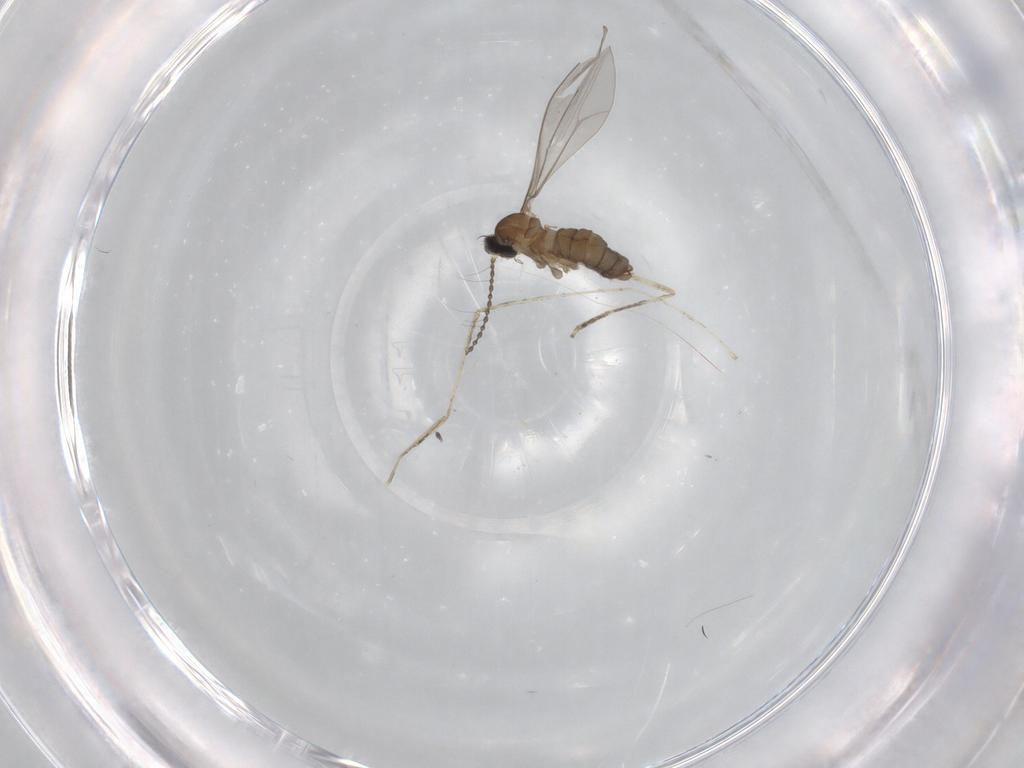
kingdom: Animalia
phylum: Arthropoda
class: Insecta
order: Diptera
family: Cecidomyiidae
